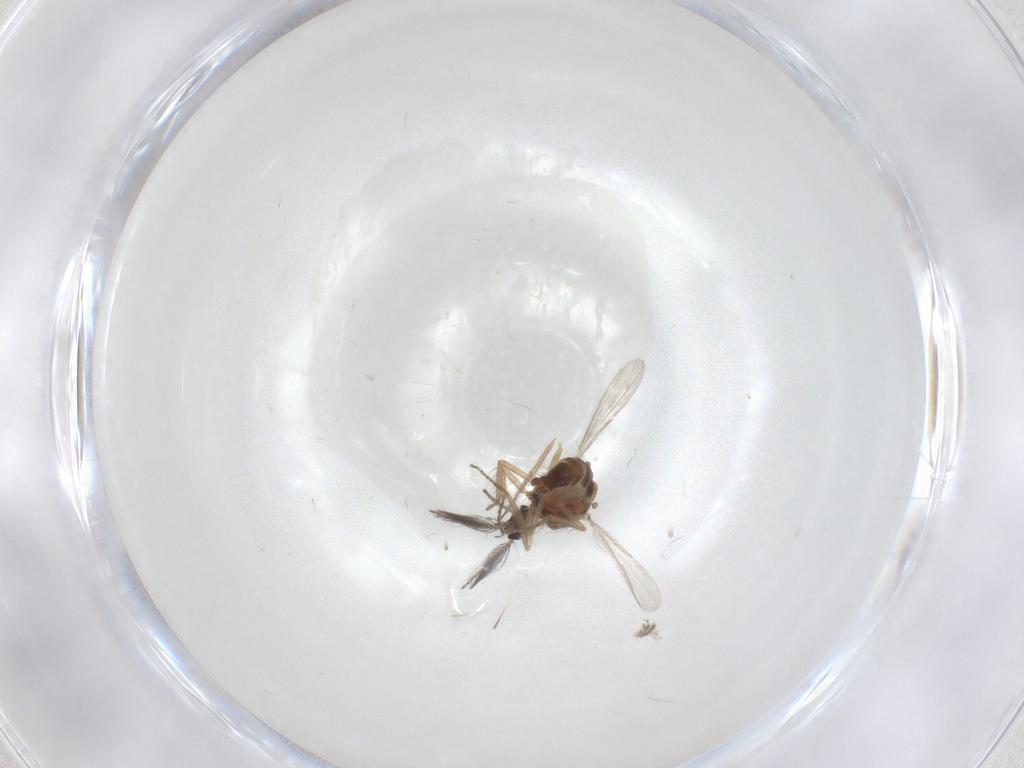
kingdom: Animalia
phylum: Arthropoda
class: Insecta
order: Diptera
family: Ceratopogonidae
